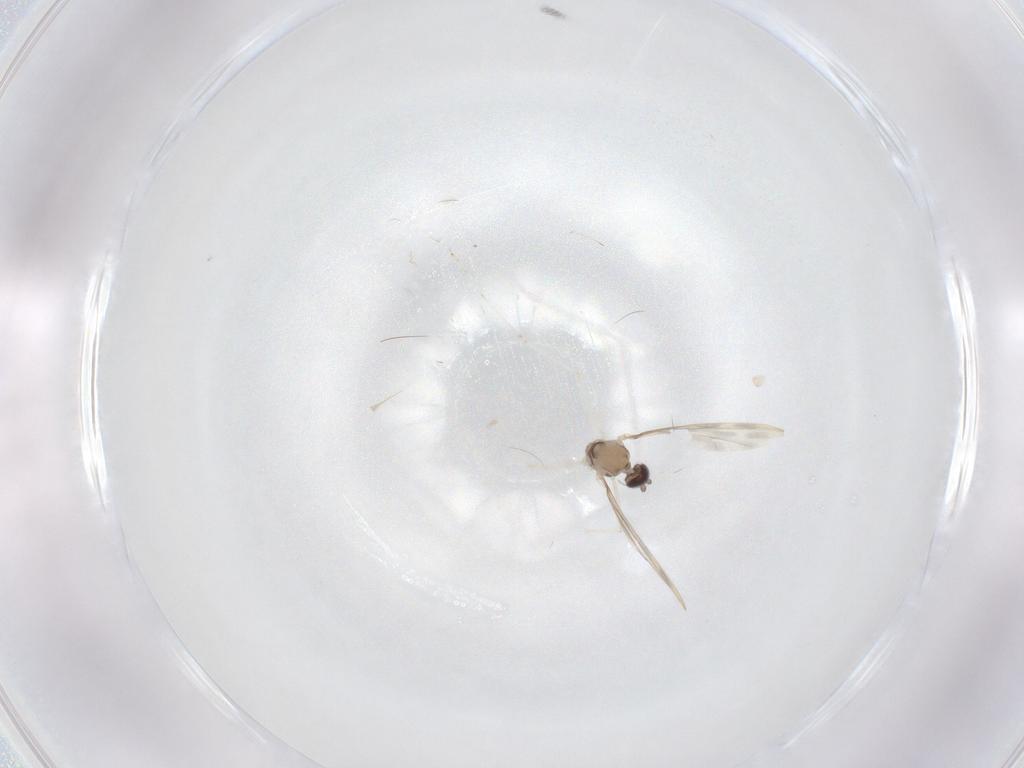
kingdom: Animalia
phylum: Arthropoda
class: Insecta
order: Diptera
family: Cecidomyiidae
